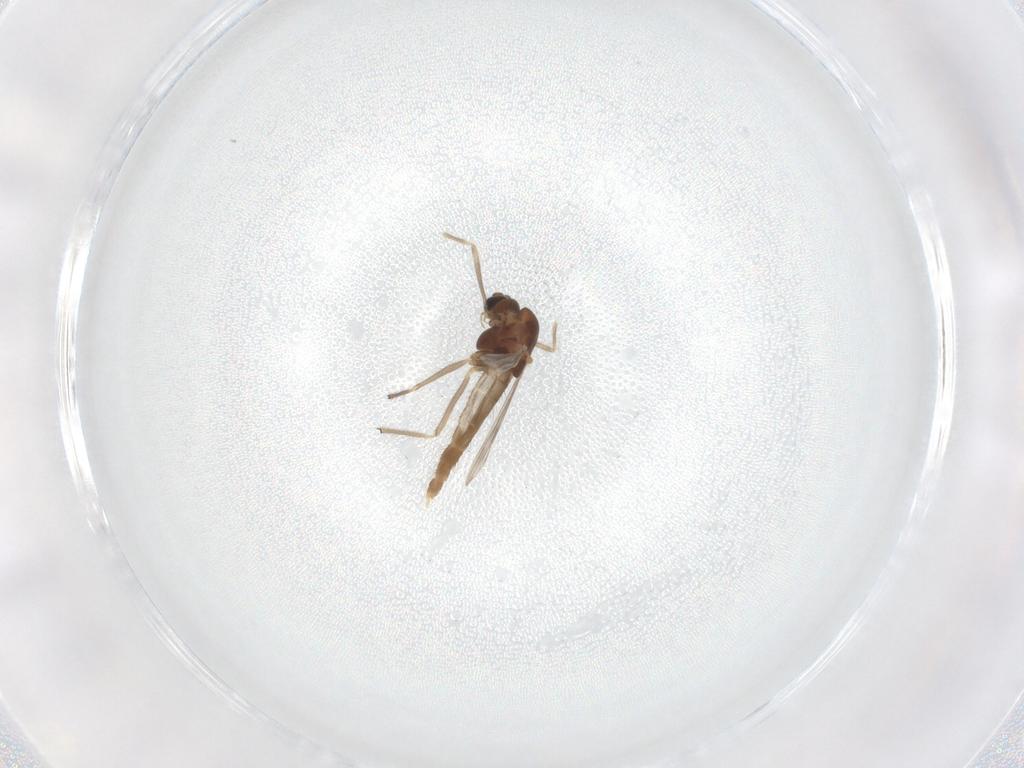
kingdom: Animalia
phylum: Arthropoda
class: Insecta
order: Diptera
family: Chironomidae
